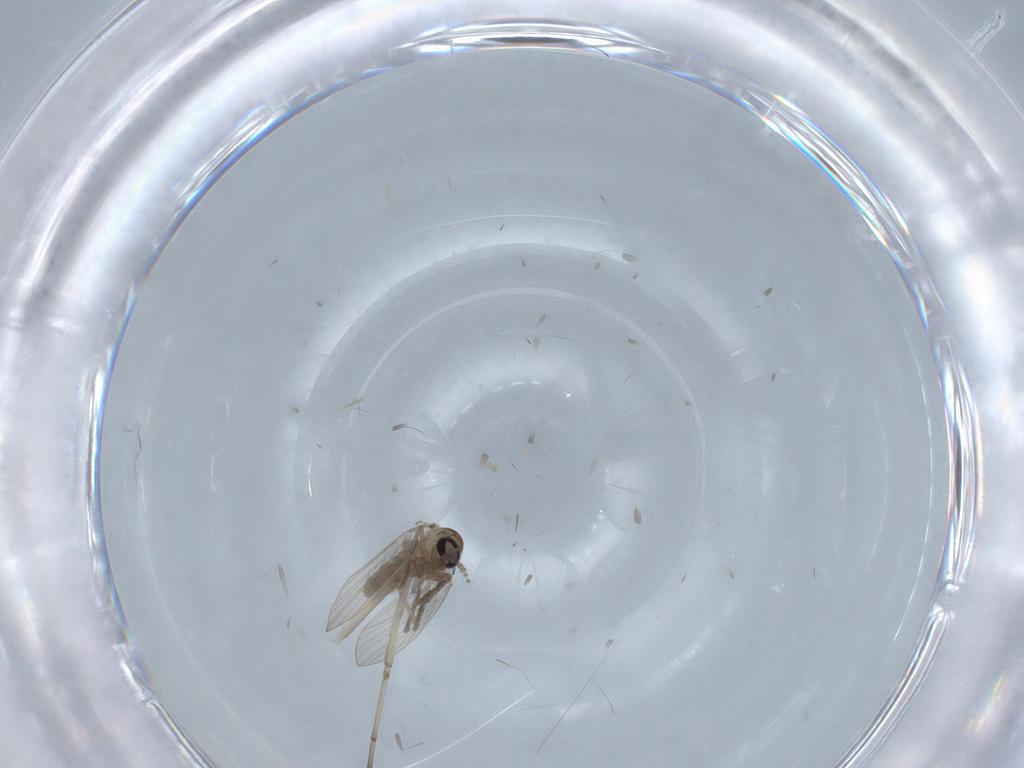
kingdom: Animalia
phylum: Arthropoda
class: Insecta
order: Diptera
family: Psychodidae
